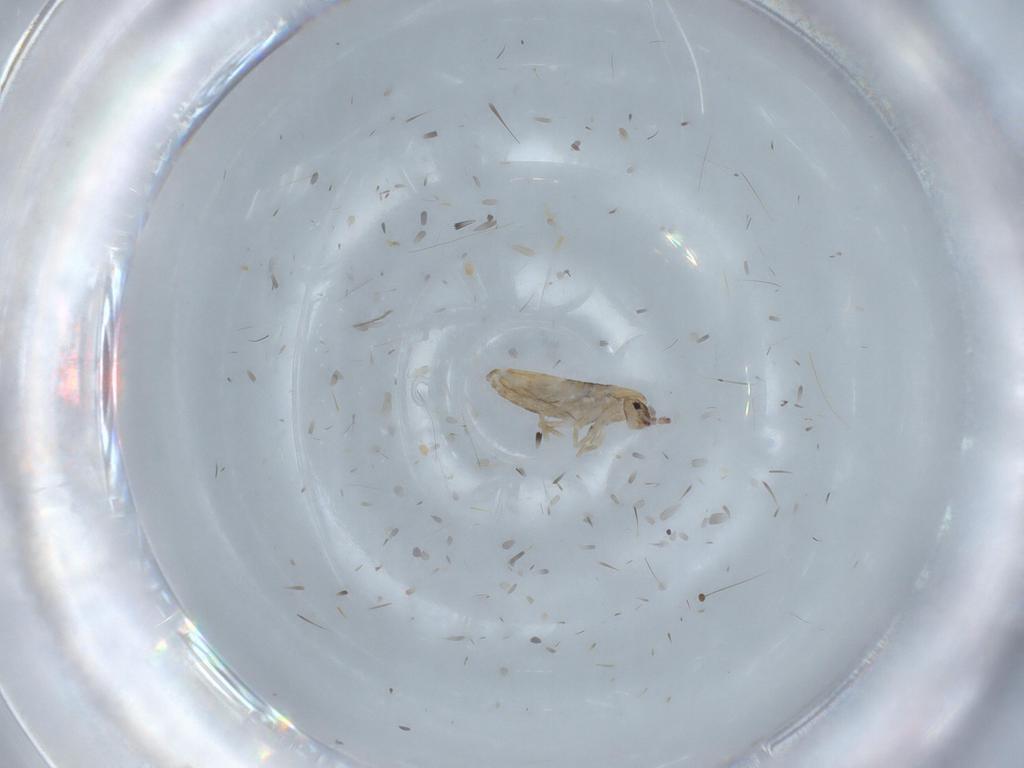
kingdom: Animalia
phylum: Arthropoda
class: Collembola
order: Entomobryomorpha
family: Entomobryidae
